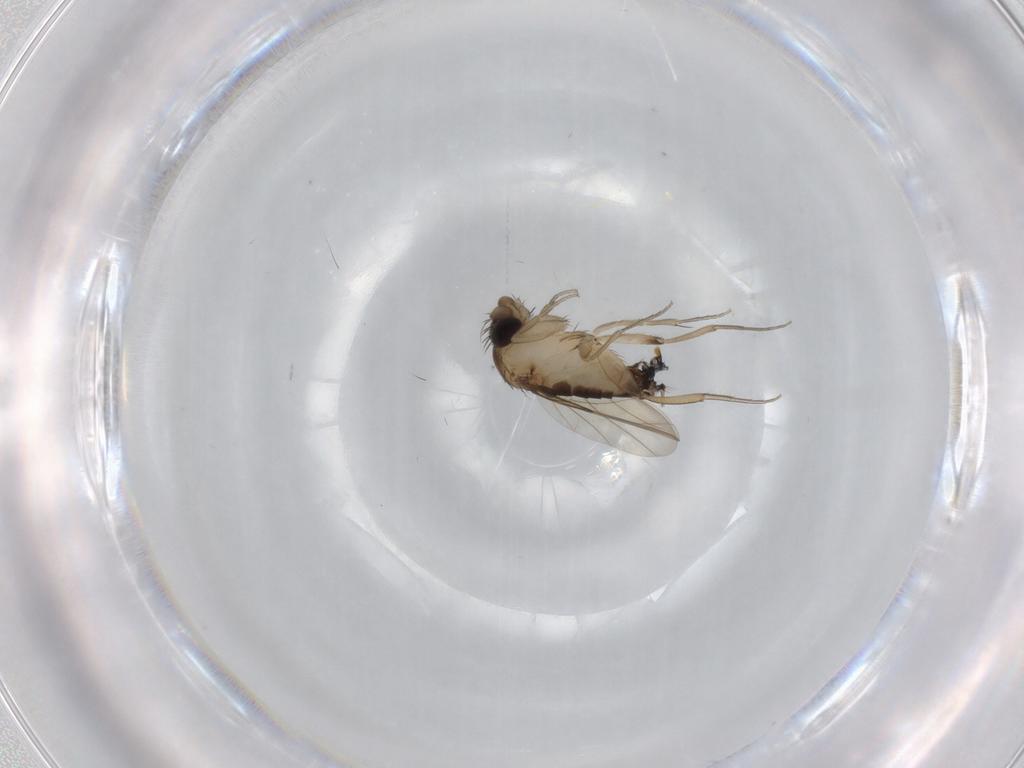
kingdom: Animalia
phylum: Arthropoda
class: Insecta
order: Diptera
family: Phoridae
